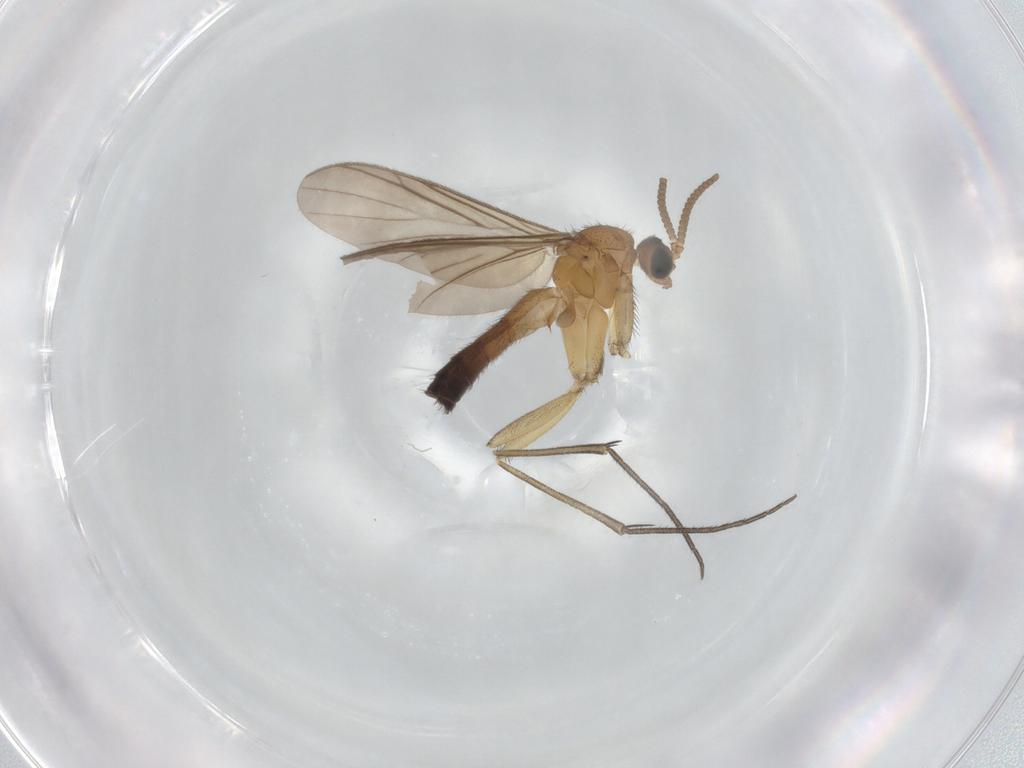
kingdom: Animalia
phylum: Arthropoda
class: Insecta
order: Diptera
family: Keroplatidae
